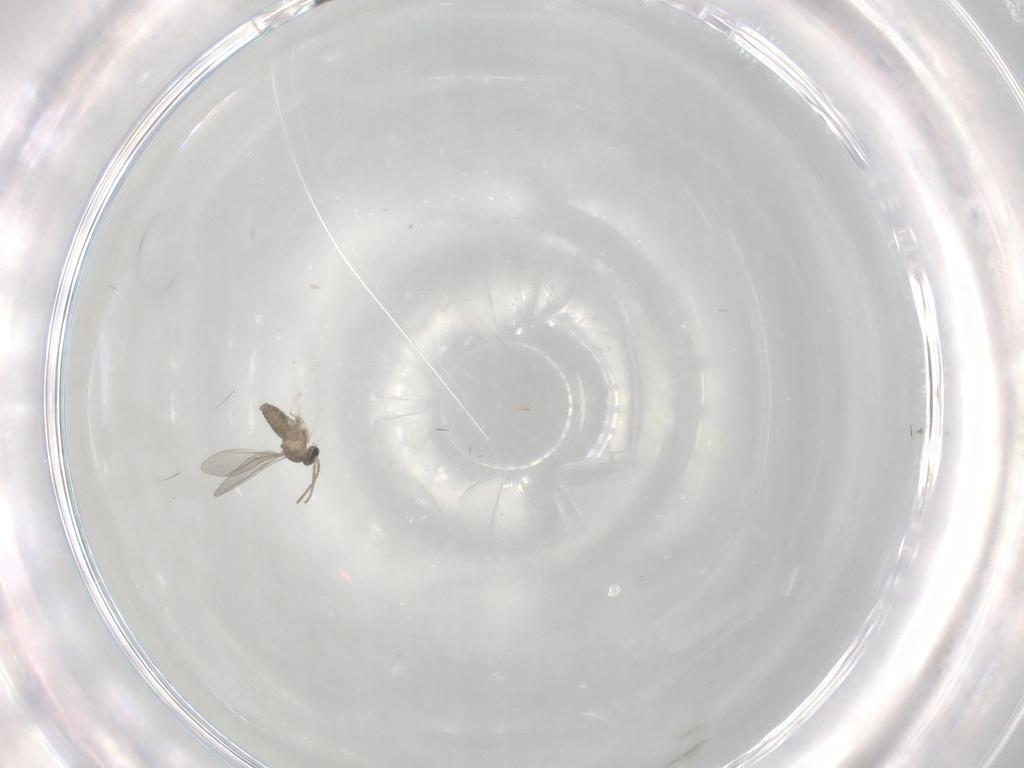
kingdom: Animalia
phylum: Arthropoda
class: Insecta
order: Diptera
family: Cecidomyiidae
